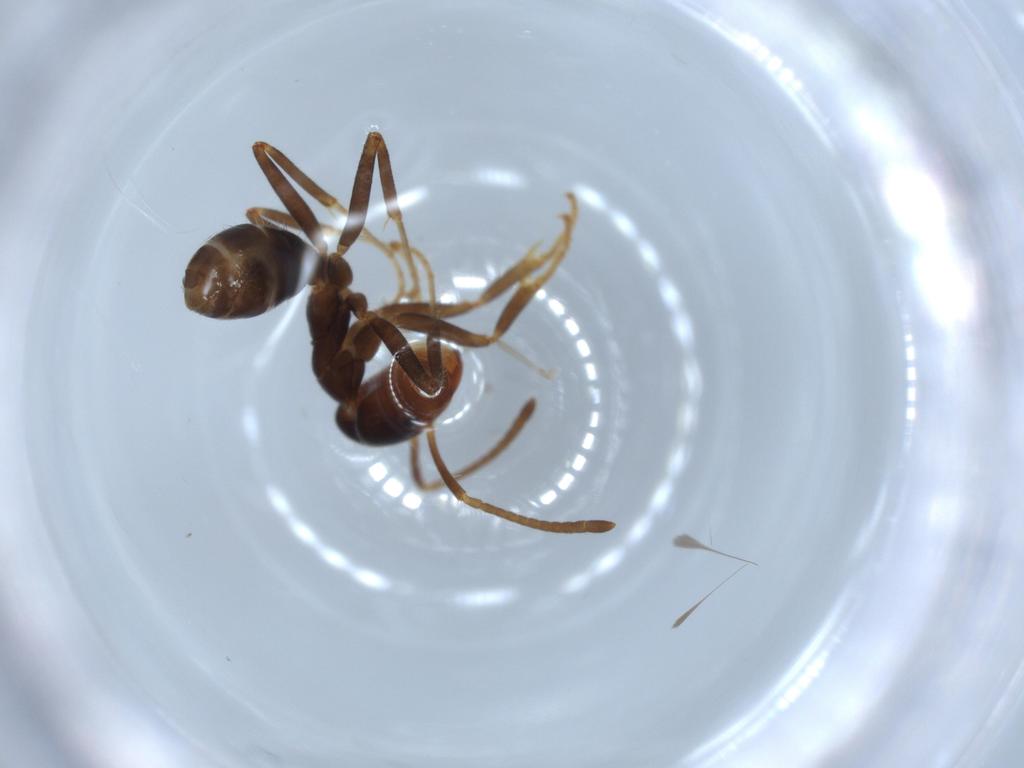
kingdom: Animalia
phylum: Arthropoda
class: Insecta
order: Hymenoptera
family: Formicidae
